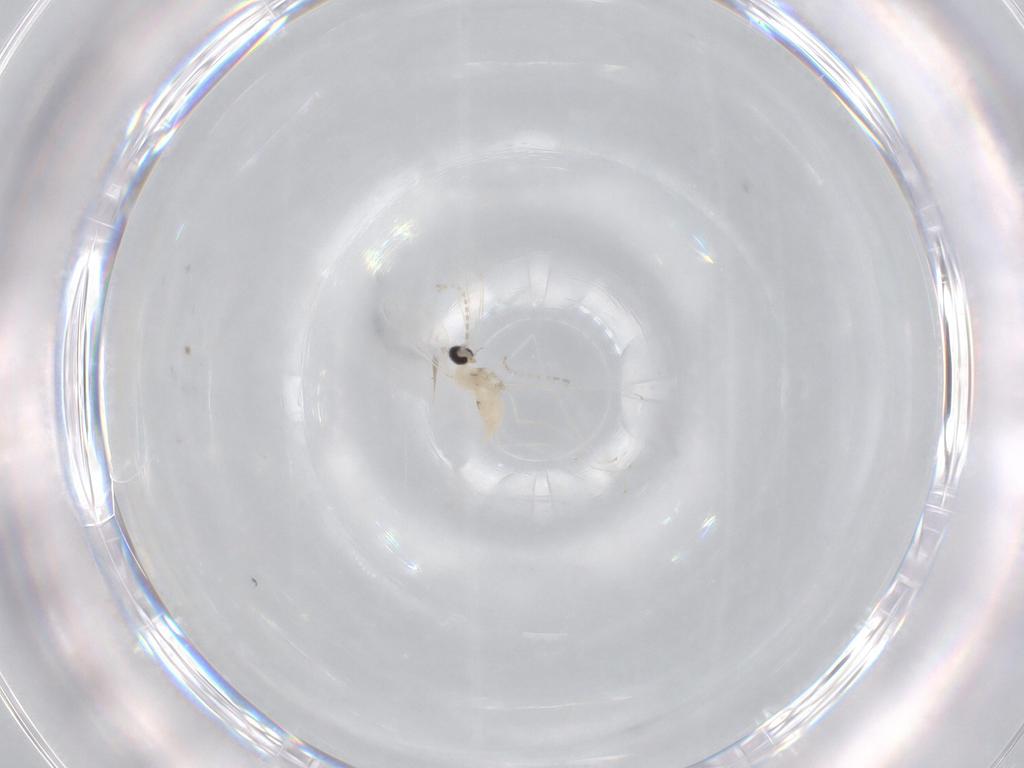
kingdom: Animalia
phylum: Arthropoda
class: Insecta
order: Diptera
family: Cecidomyiidae
